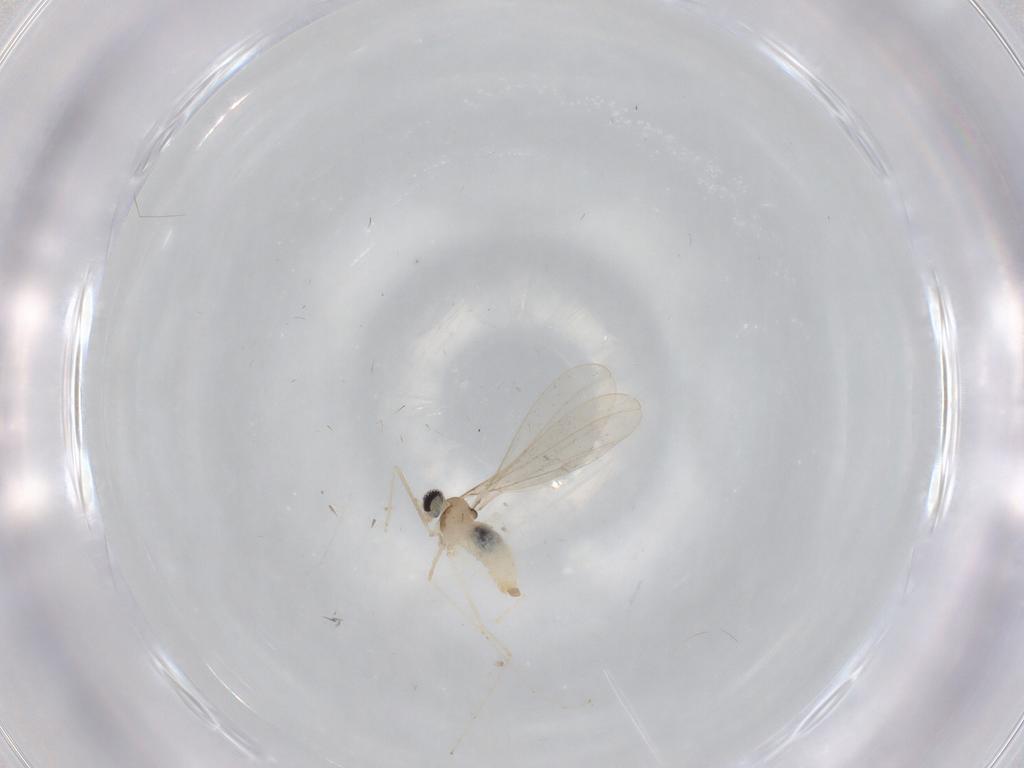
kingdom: Animalia
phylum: Arthropoda
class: Insecta
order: Diptera
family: Cecidomyiidae
